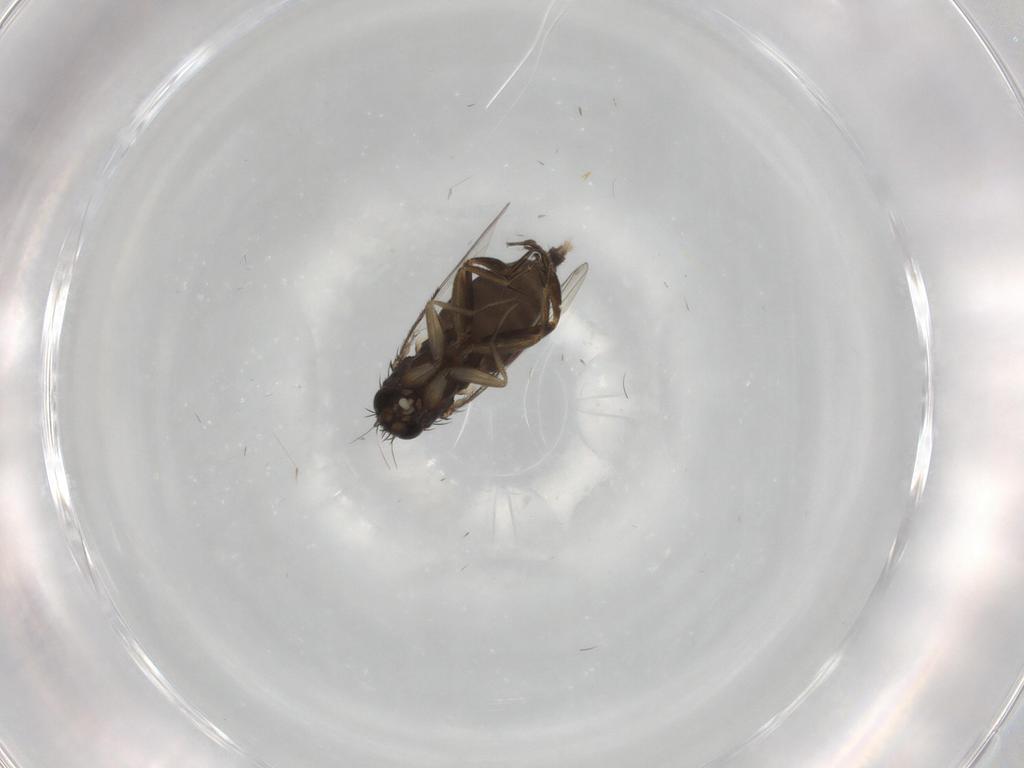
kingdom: Animalia
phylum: Arthropoda
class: Insecta
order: Diptera
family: Phoridae
